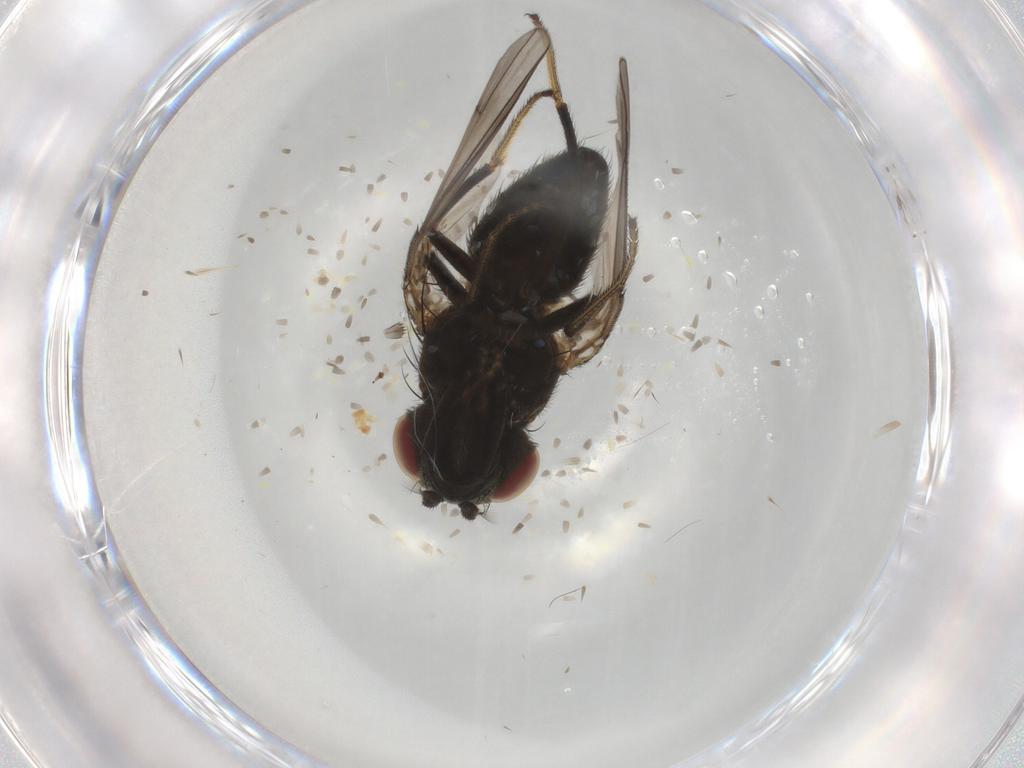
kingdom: Animalia
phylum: Arthropoda
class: Insecta
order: Diptera
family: Ephydridae
